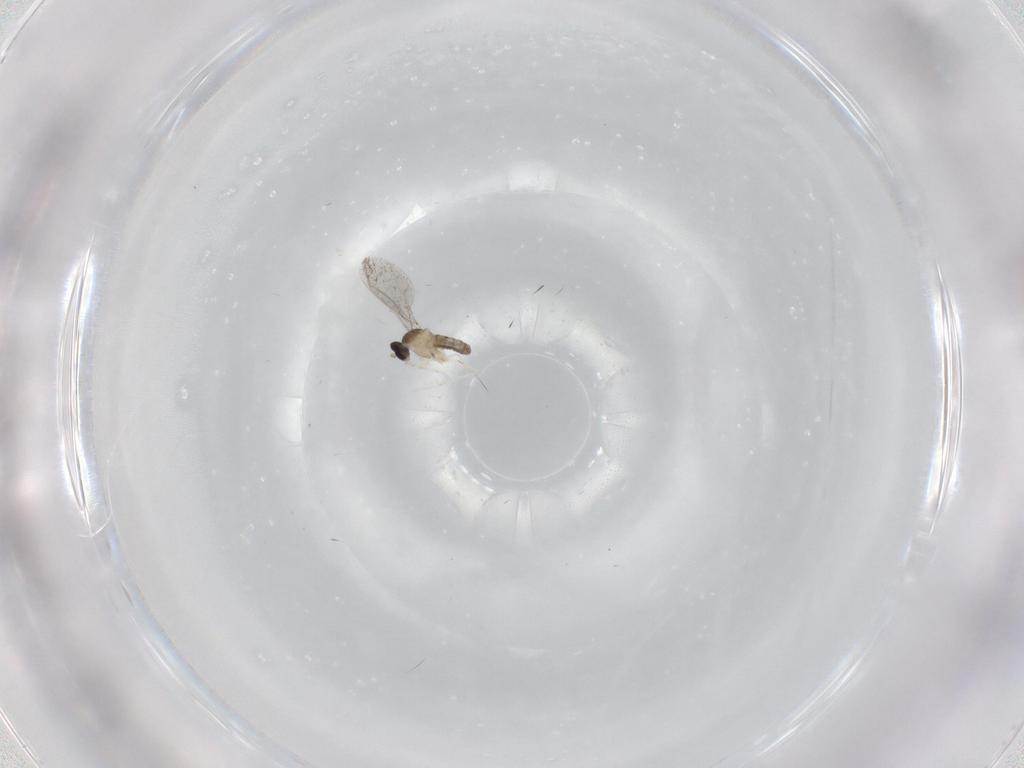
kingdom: Animalia
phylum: Arthropoda
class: Insecta
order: Diptera
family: Cecidomyiidae
